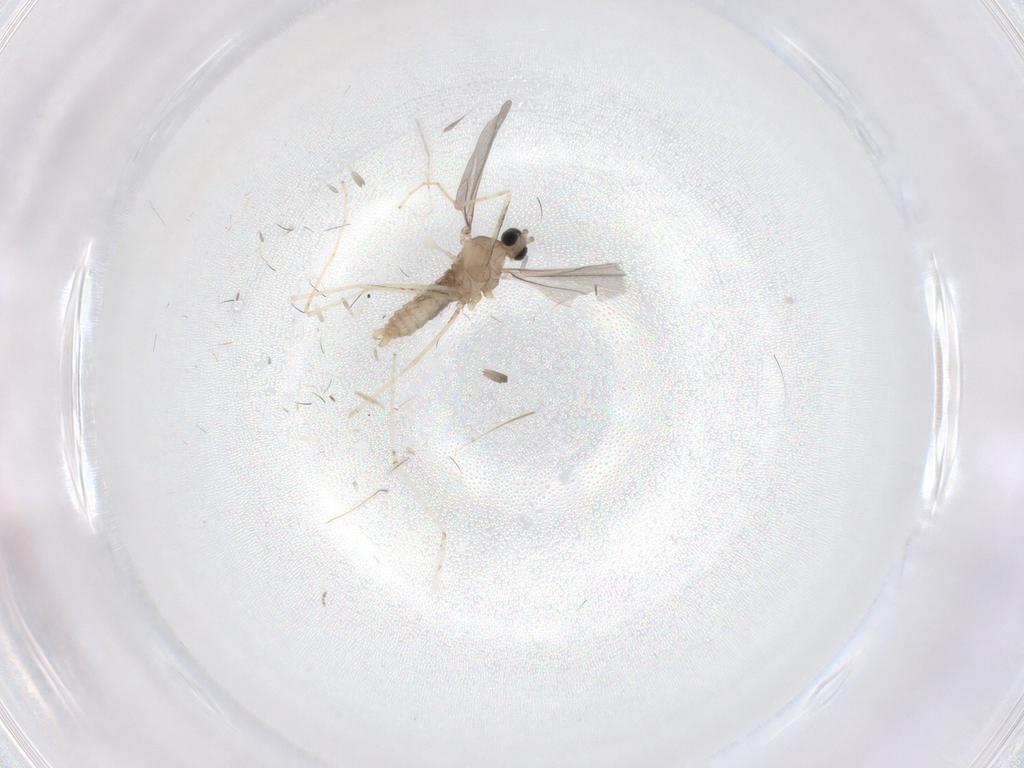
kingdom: Animalia
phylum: Arthropoda
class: Insecta
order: Diptera
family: Cecidomyiidae
